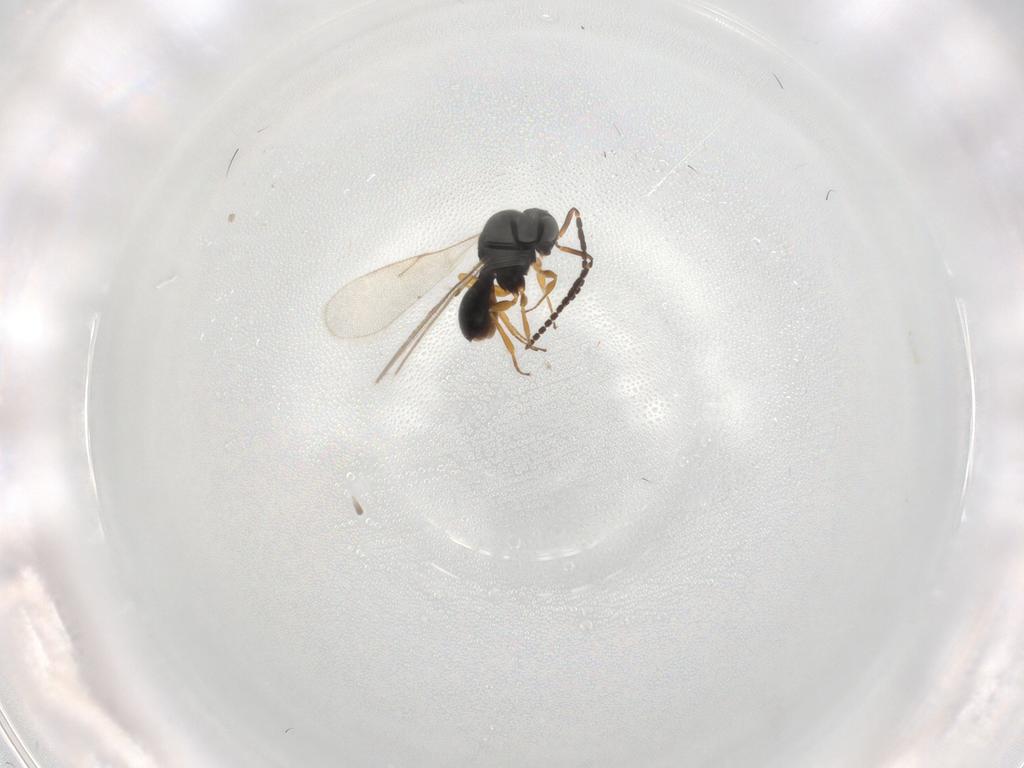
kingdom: Animalia
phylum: Arthropoda
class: Insecta
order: Hymenoptera
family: Scelionidae
